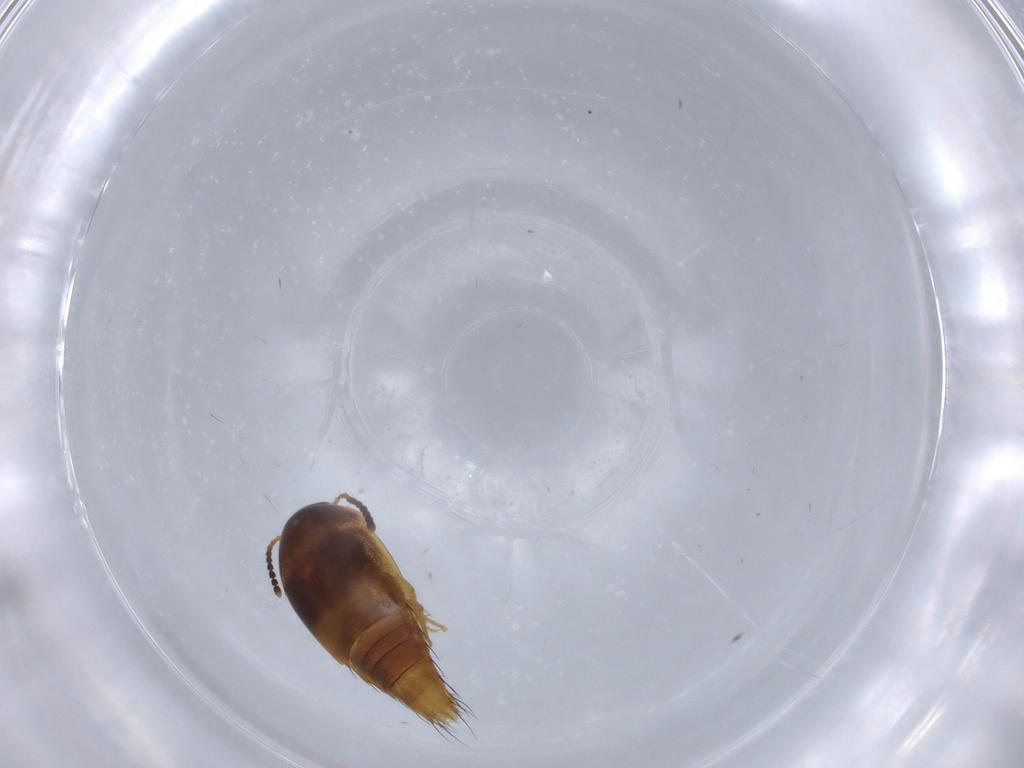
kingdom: Animalia
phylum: Arthropoda
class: Insecta
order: Coleoptera
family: Staphylinidae
